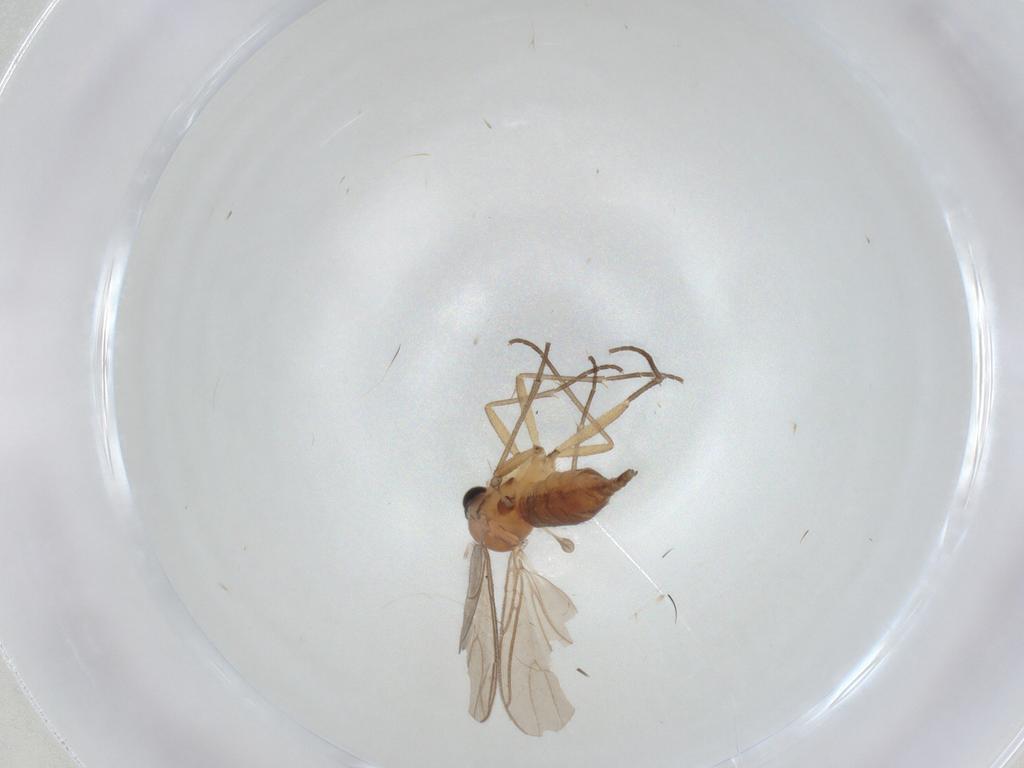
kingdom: Animalia
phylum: Arthropoda
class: Insecta
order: Diptera
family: Sciaridae
